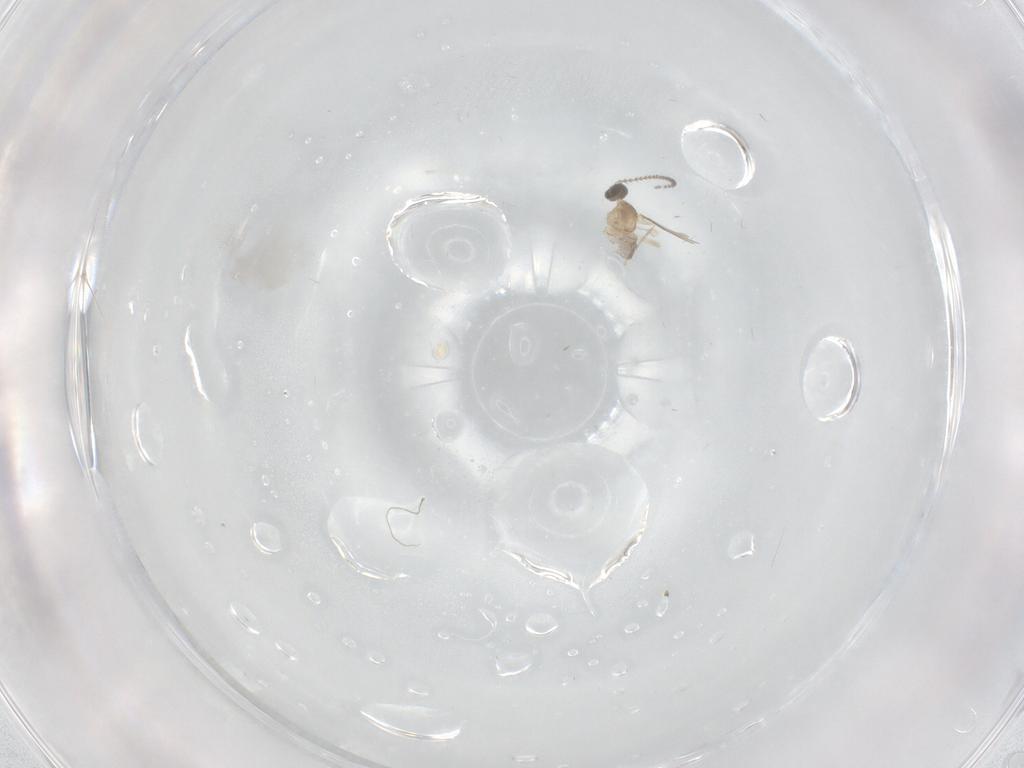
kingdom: Animalia
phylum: Arthropoda
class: Insecta
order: Diptera
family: Cecidomyiidae
